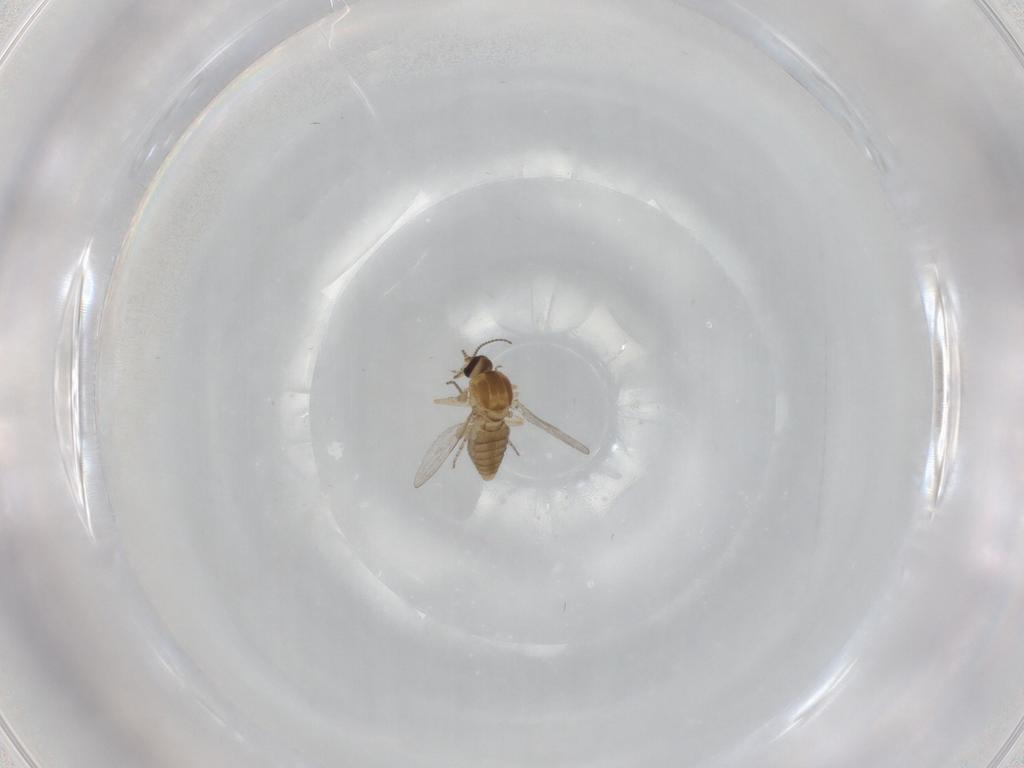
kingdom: Animalia
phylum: Arthropoda
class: Insecta
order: Diptera
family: Ceratopogonidae
